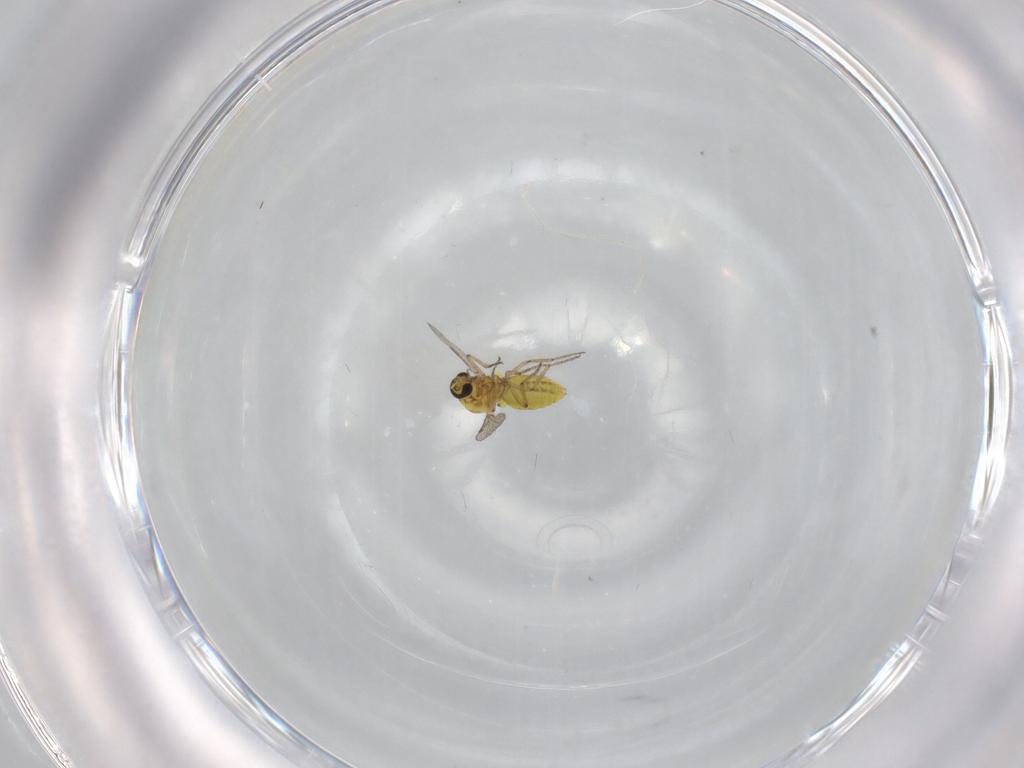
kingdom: Animalia
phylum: Arthropoda
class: Insecta
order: Diptera
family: Ceratopogonidae
